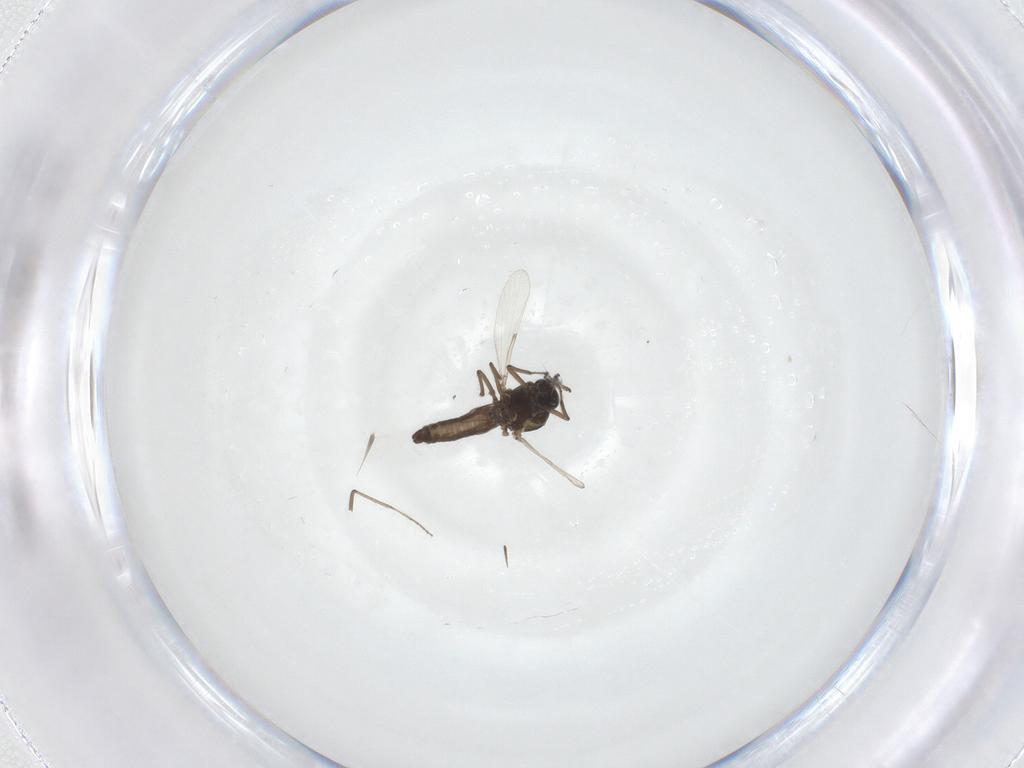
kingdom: Animalia
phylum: Arthropoda
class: Insecta
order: Diptera
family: Ceratopogonidae
